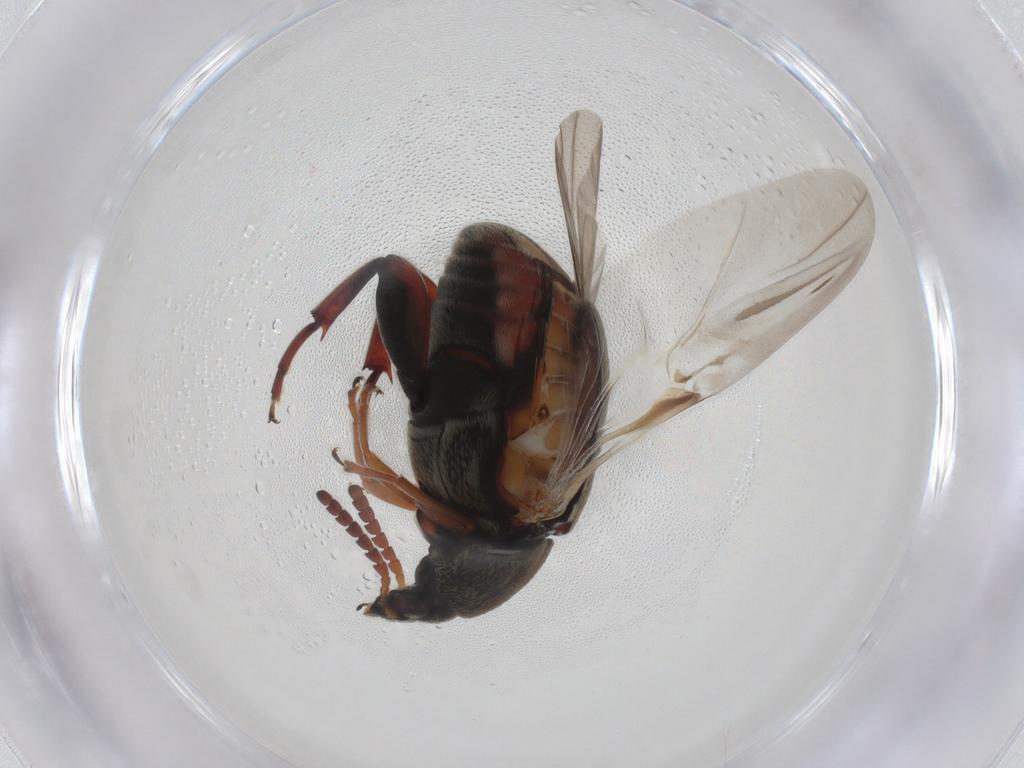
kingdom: Animalia
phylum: Arthropoda
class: Insecta
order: Coleoptera
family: Chrysomelidae
